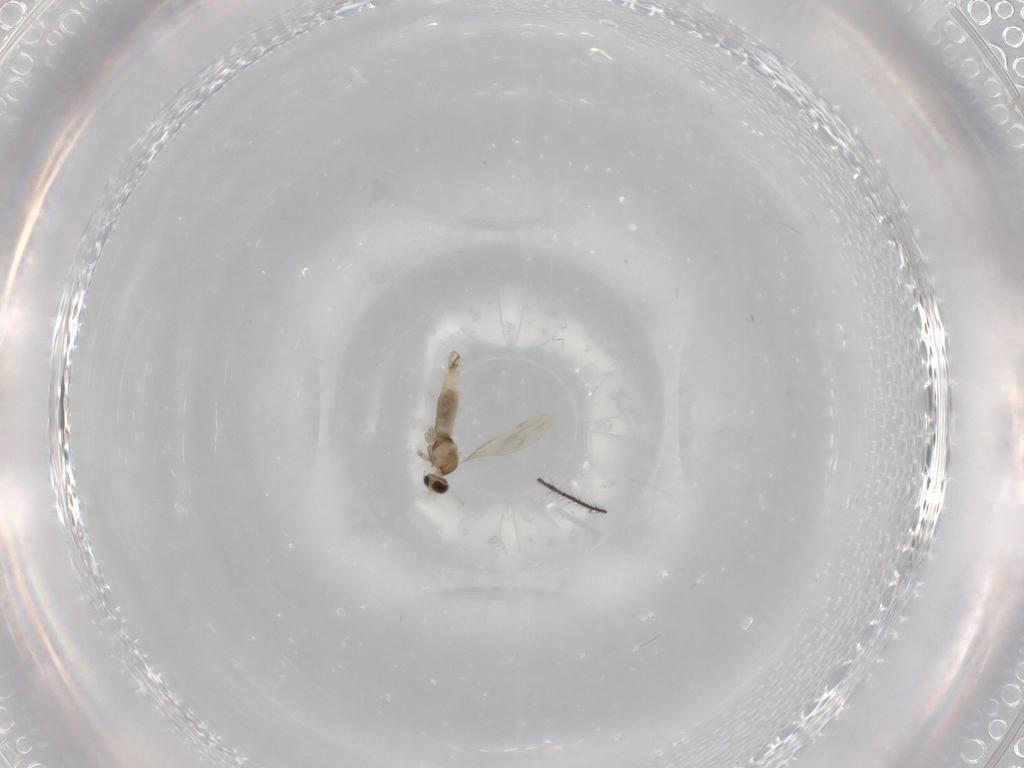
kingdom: Animalia
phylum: Arthropoda
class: Insecta
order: Diptera
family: Cecidomyiidae
